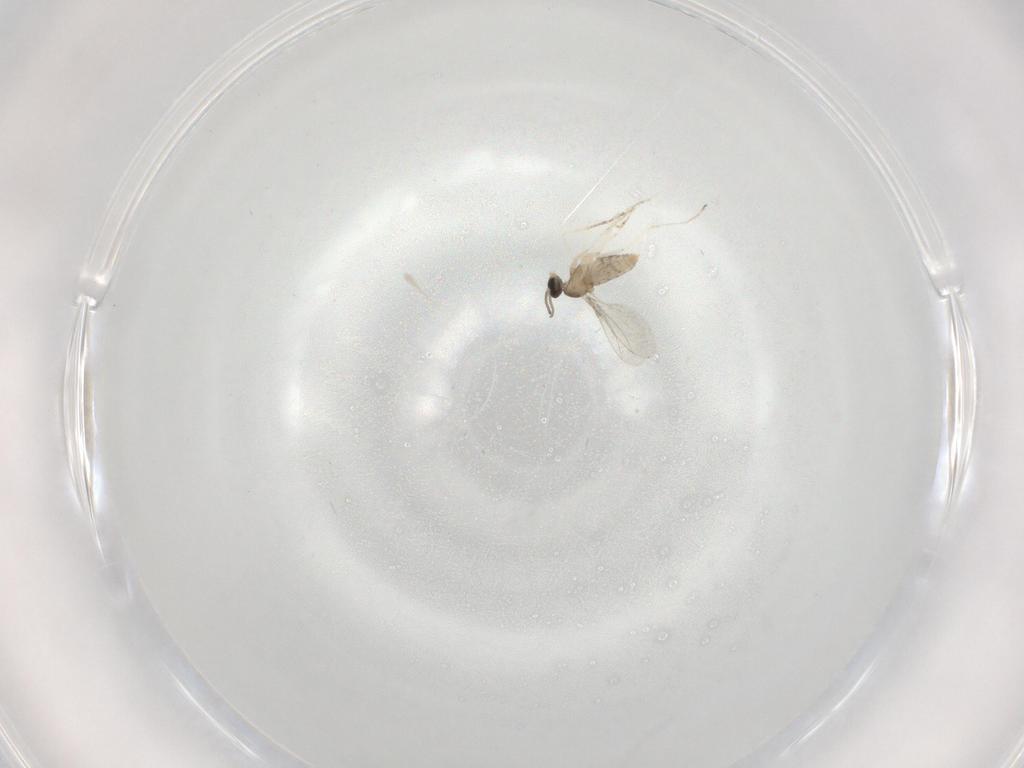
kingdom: Animalia
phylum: Arthropoda
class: Insecta
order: Diptera
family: Cecidomyiidae
